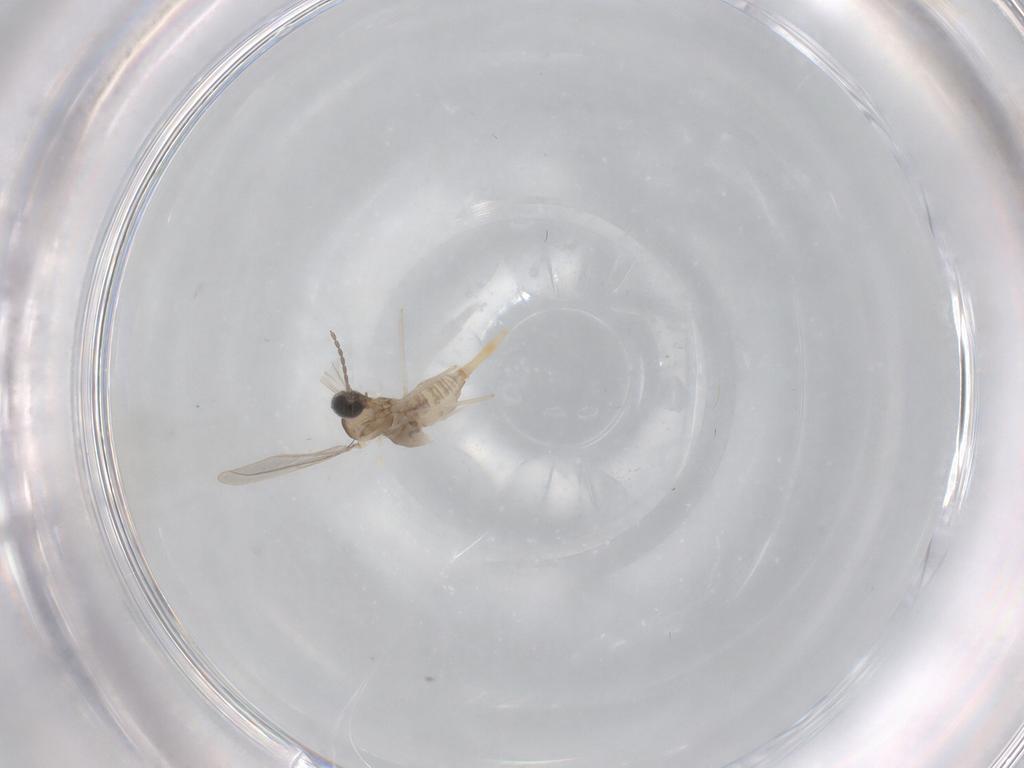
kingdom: Animalia
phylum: Arthropoda
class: Insecta
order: Diptera
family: Cecidomyiidae
